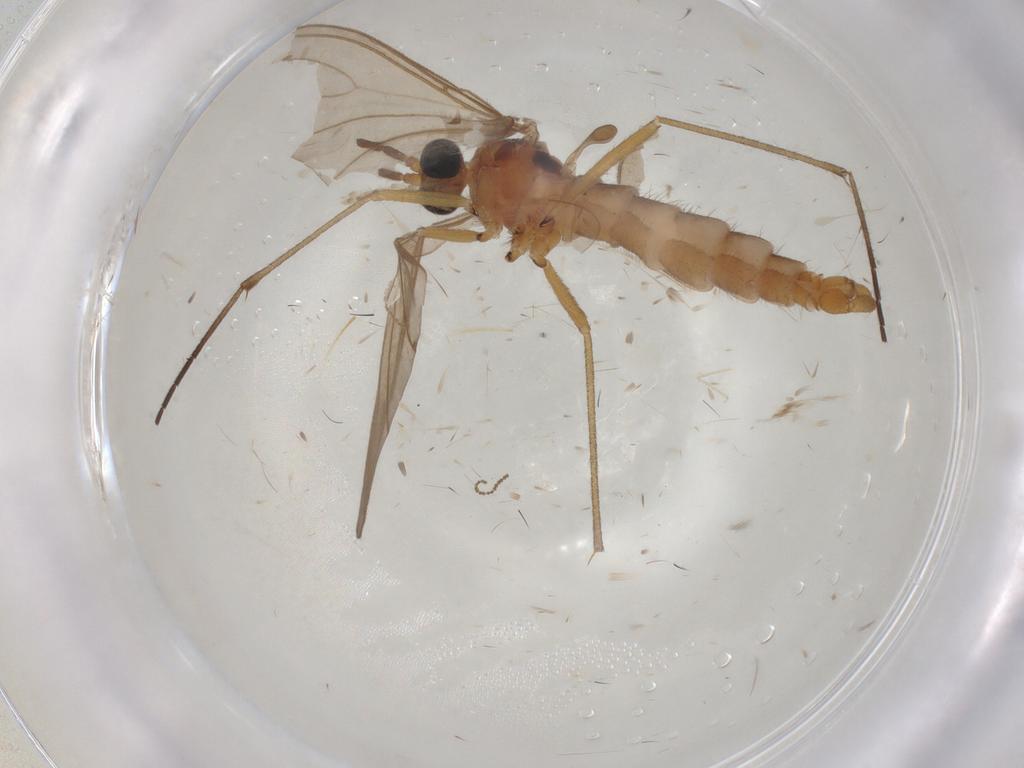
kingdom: Animalia
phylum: Arthropoda
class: Insecta
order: Diptera
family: Sciaridae
